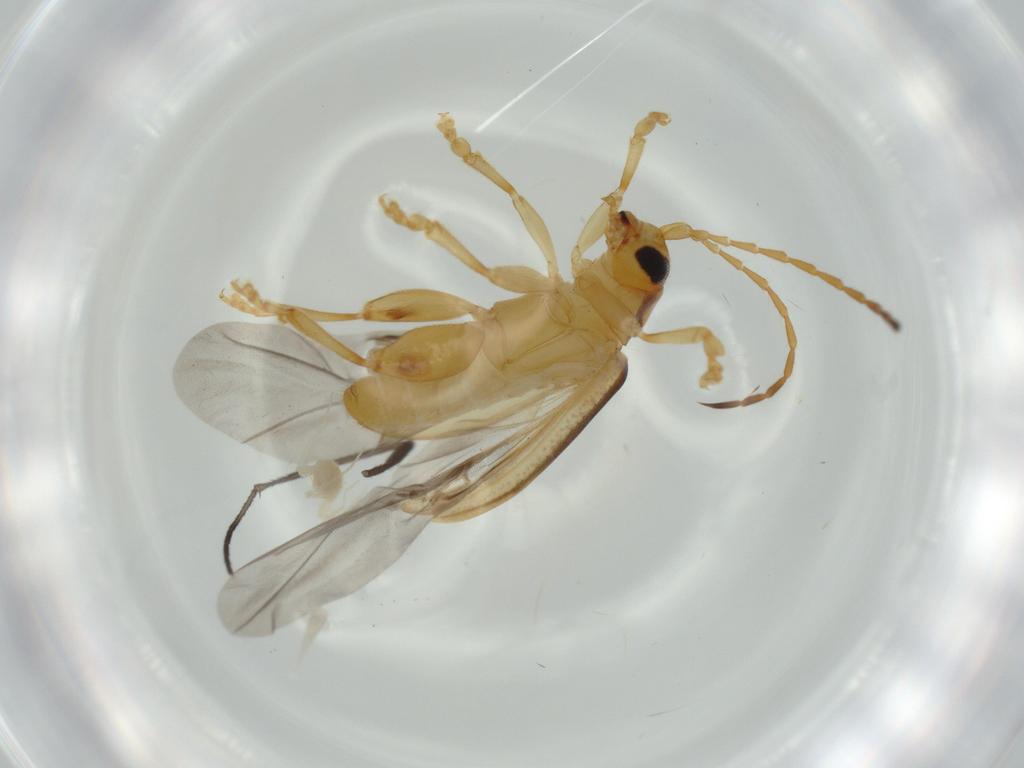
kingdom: Animalia
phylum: Arthropoda
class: Insecta
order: Coleoptera
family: Chrysomelidae
